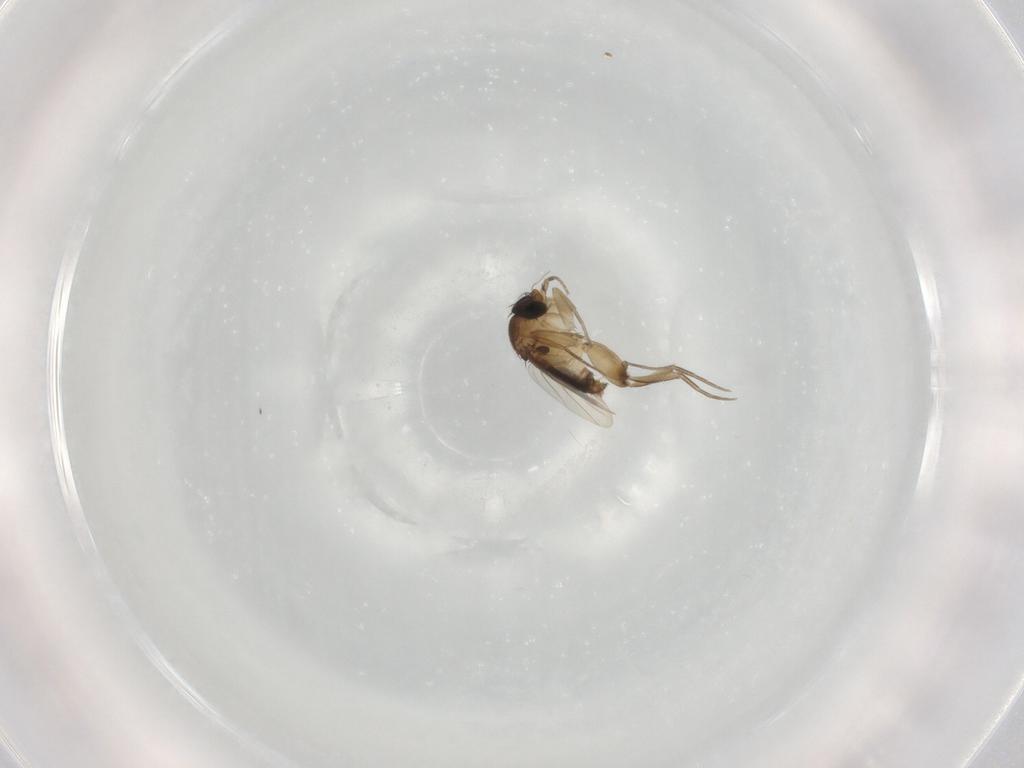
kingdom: Animalia
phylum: Arthropoda
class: Insecta
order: Diptera
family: Phoridae
